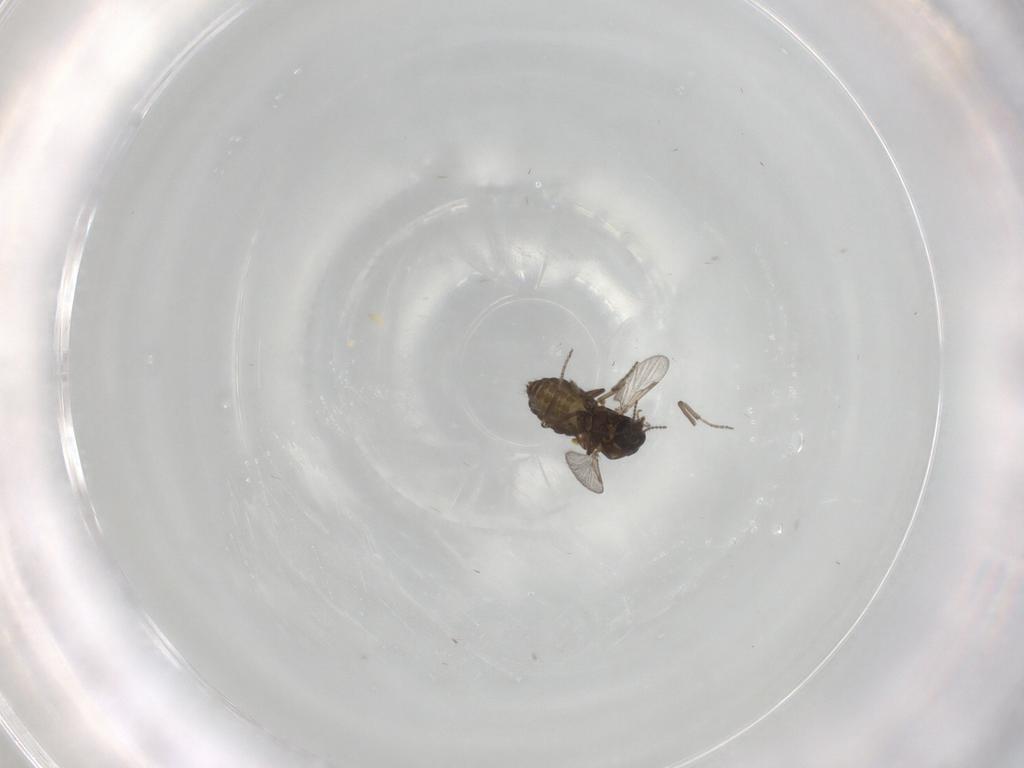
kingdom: Animalia
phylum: Arthropoda
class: Insecta
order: Diptera
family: Ceratopogonidae
